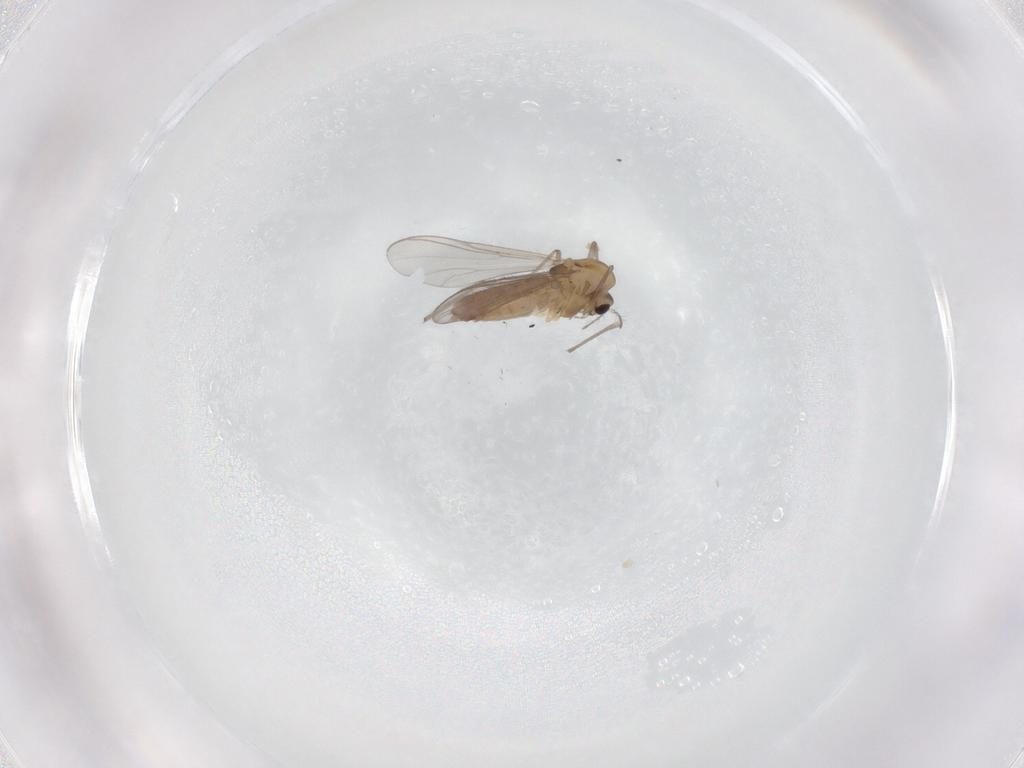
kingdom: Animalia
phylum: Arthropoda
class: Insecta
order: Diptera
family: Chironomidae
